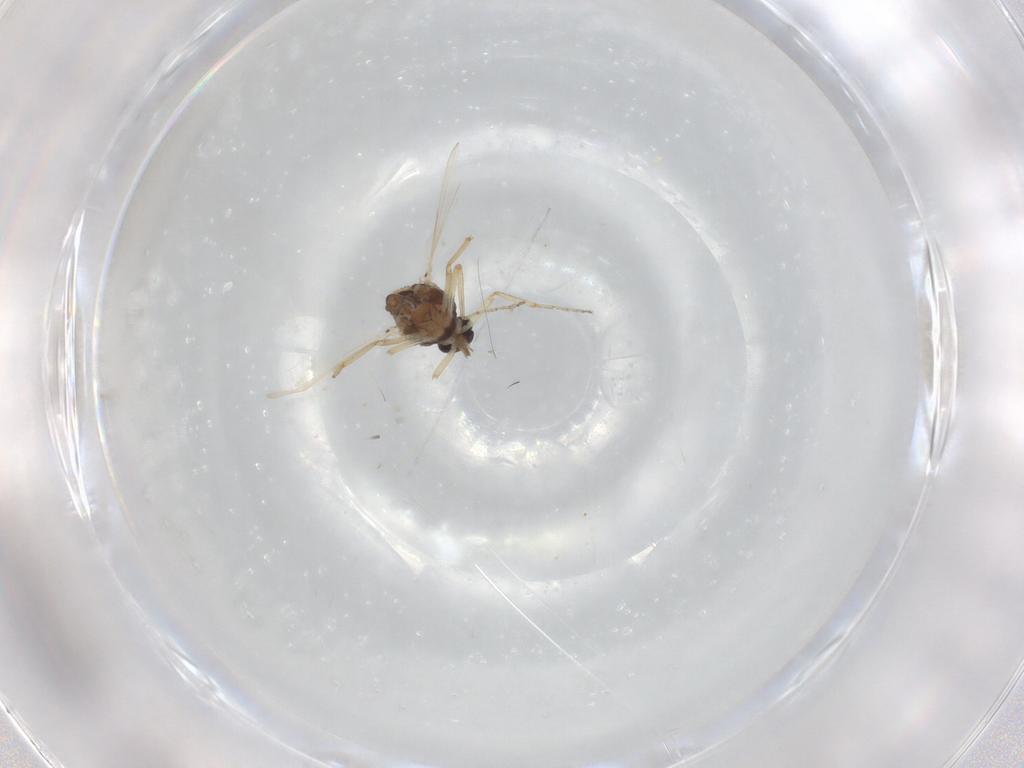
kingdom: Animalia
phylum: Arthropoda
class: Insecta
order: Diptera
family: Ceratopogonidae
